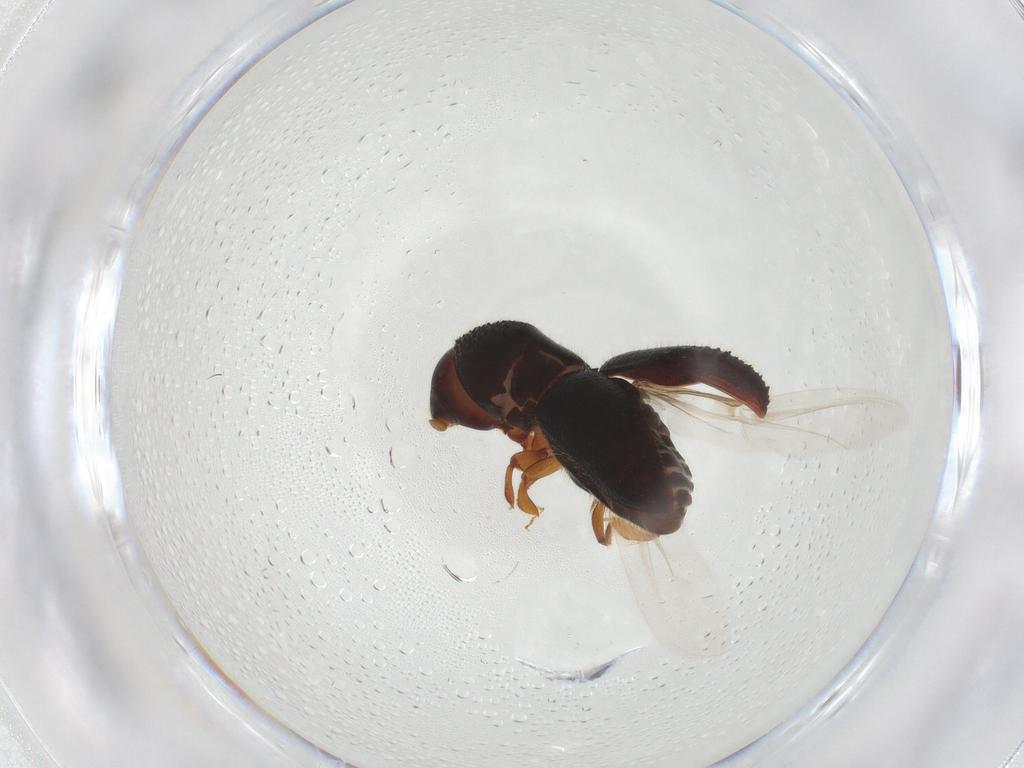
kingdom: Animalia
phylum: Arthropoda
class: Insecta
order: Coleoptera
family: Curculionidae
